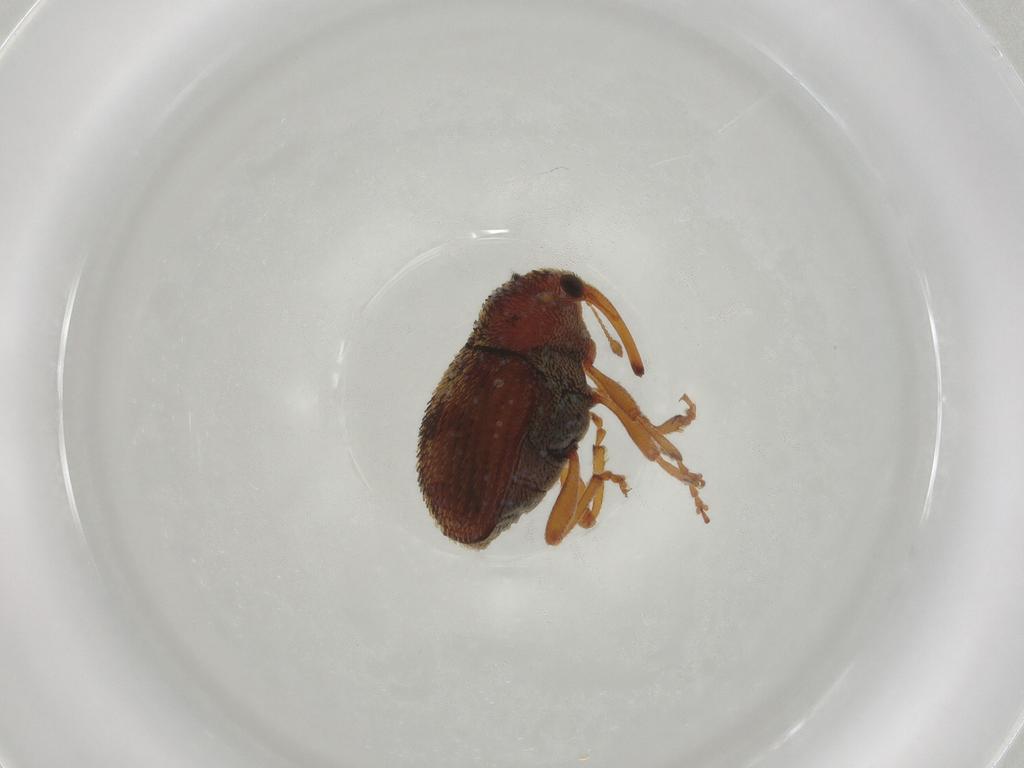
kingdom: Animalia
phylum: Arthropoda
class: Insecta
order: Coleoptera
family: Curculionidae
